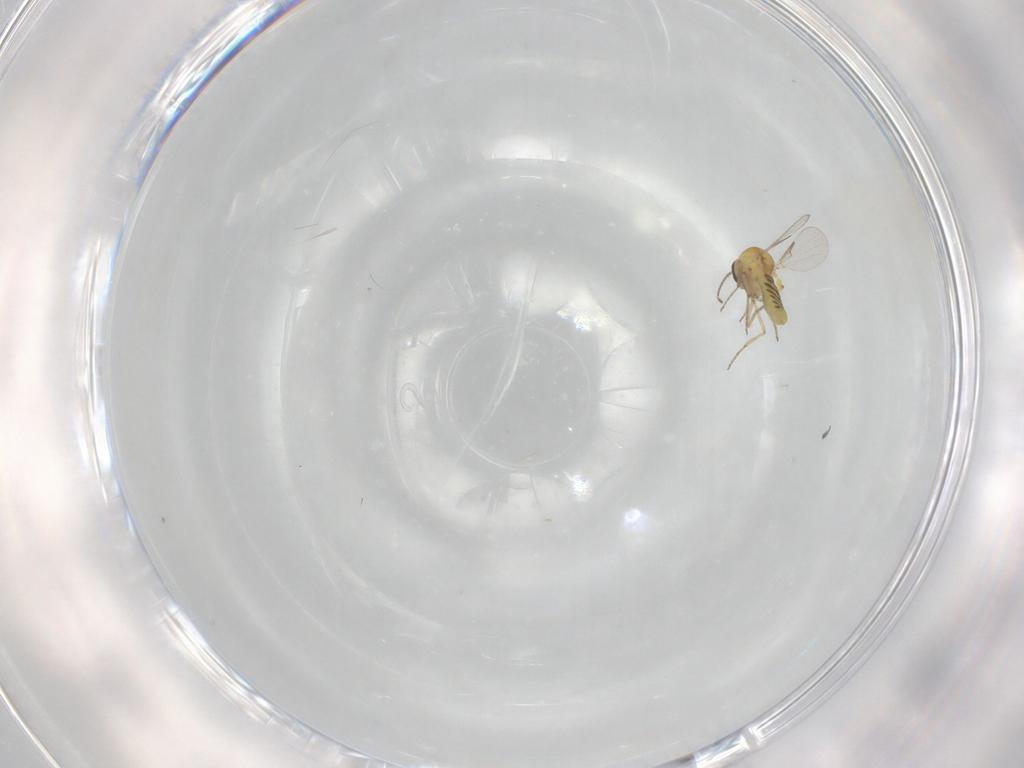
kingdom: Animalia
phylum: Arthropoda
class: Insecta
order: Diptera
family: Ceratopogonidae
